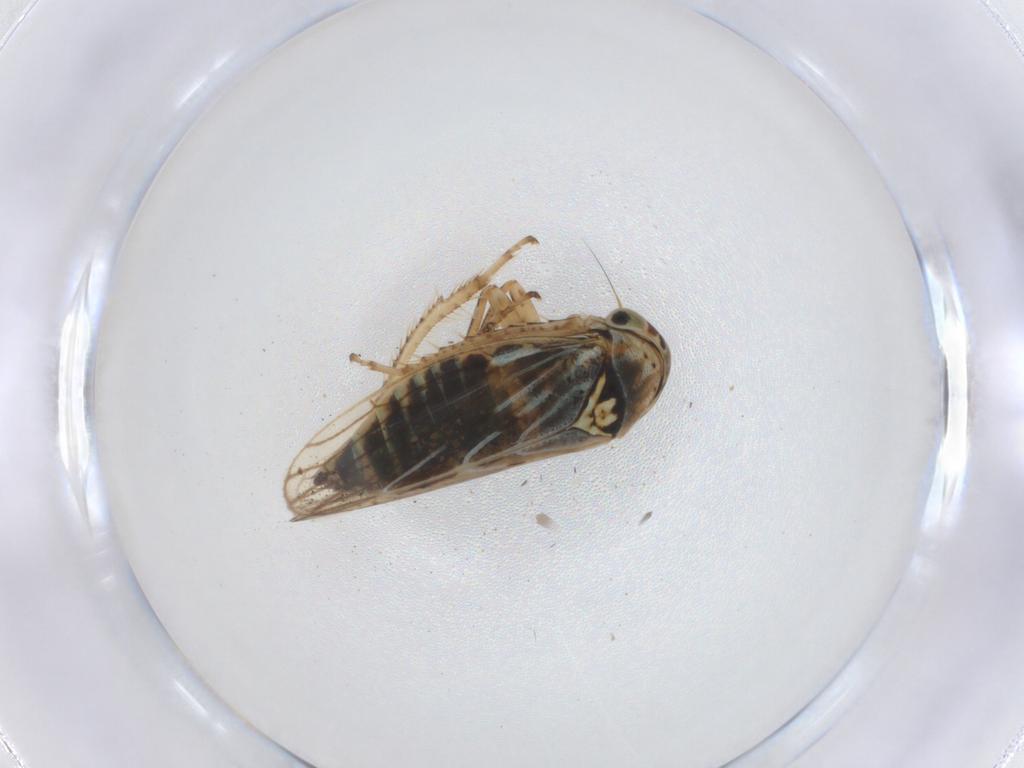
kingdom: Animalia
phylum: Arthropoda
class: Insecta
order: Hemiptera
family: Cicadellidae
